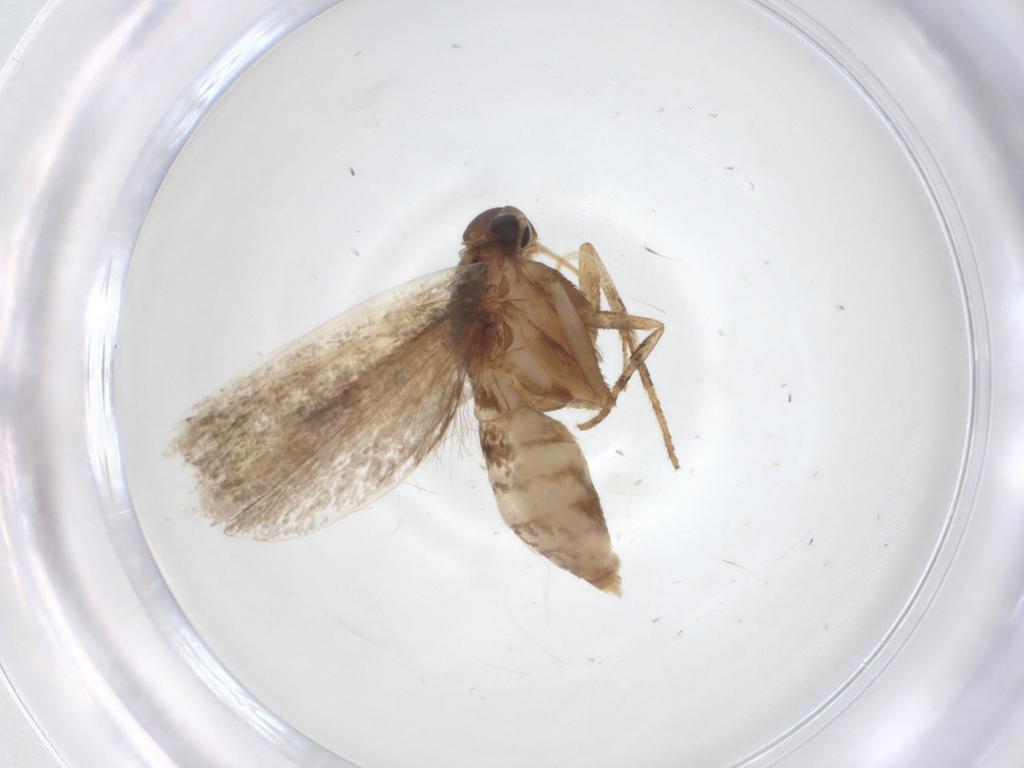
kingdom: Animalia
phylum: Arthropoda
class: Insecta
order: Lepidoptera
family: Gelechiidae
